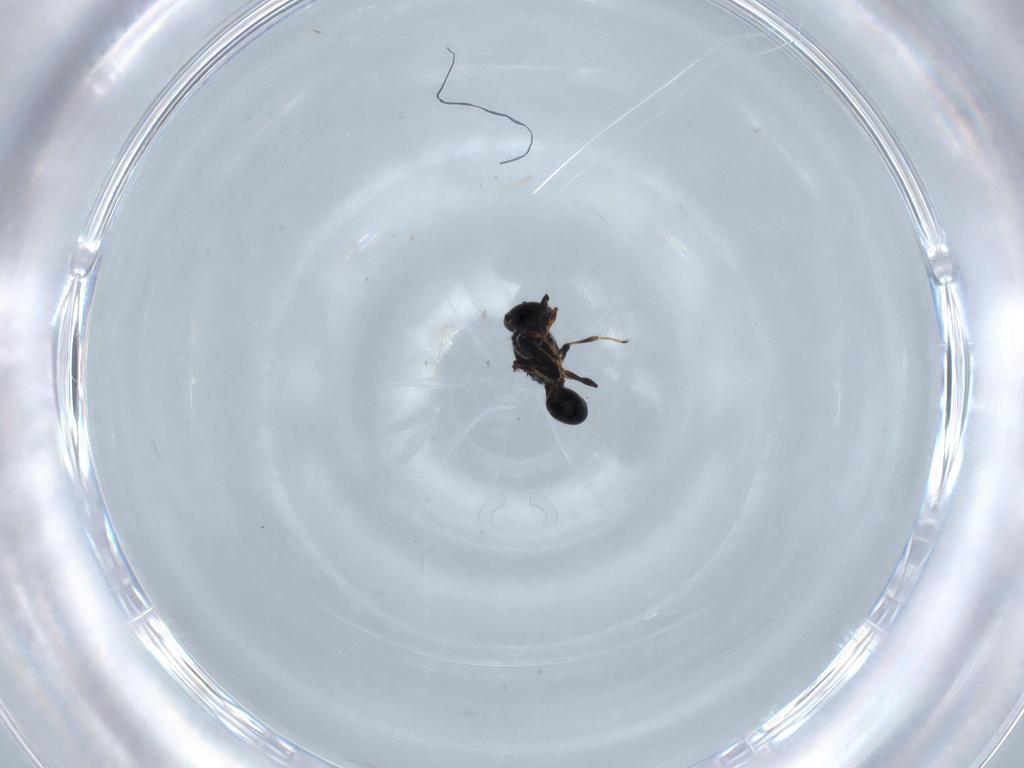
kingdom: Animalia
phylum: Arthropoda
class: Insecta
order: Hymenoptera
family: Platygastridae
